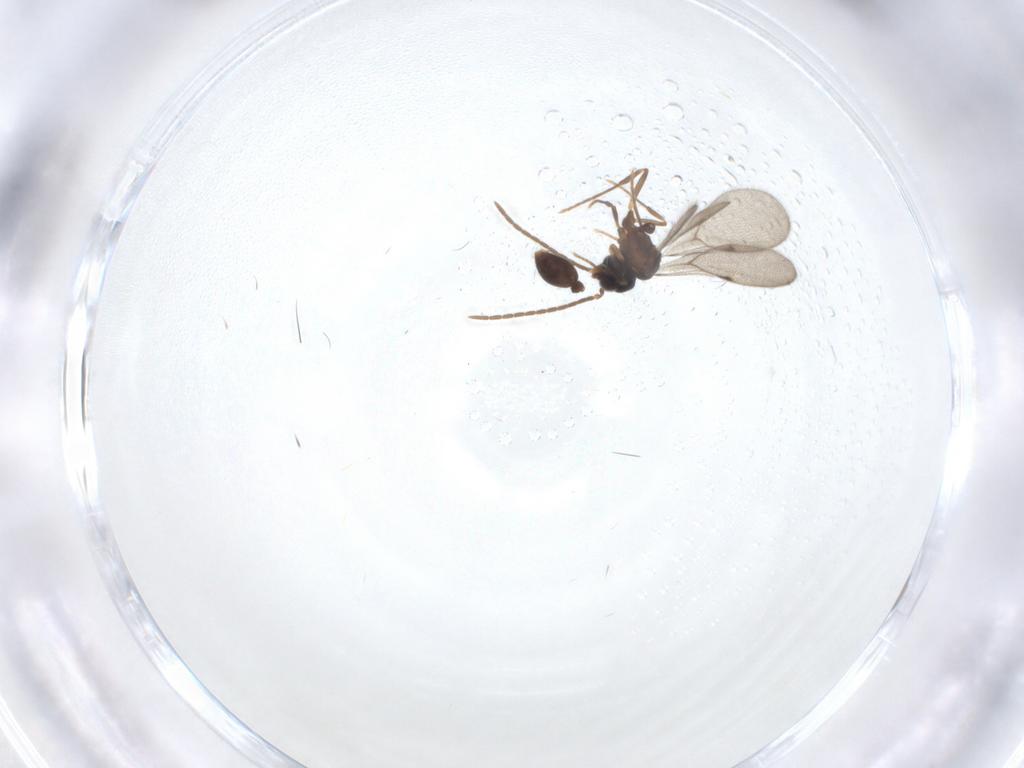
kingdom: Animalia
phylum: Arthropoda
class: Insecta
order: Hymenoptera
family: Formicidae
